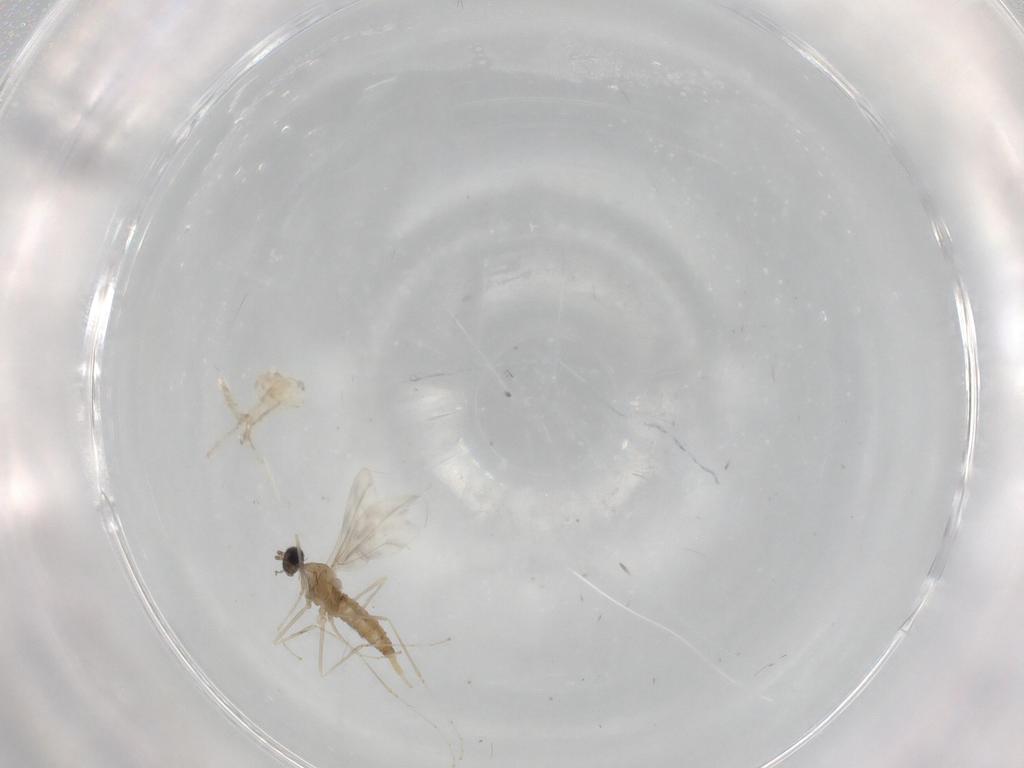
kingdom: Animalia
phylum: Arthropoda
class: Insecta
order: Diptera
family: Cecidomyiidae
